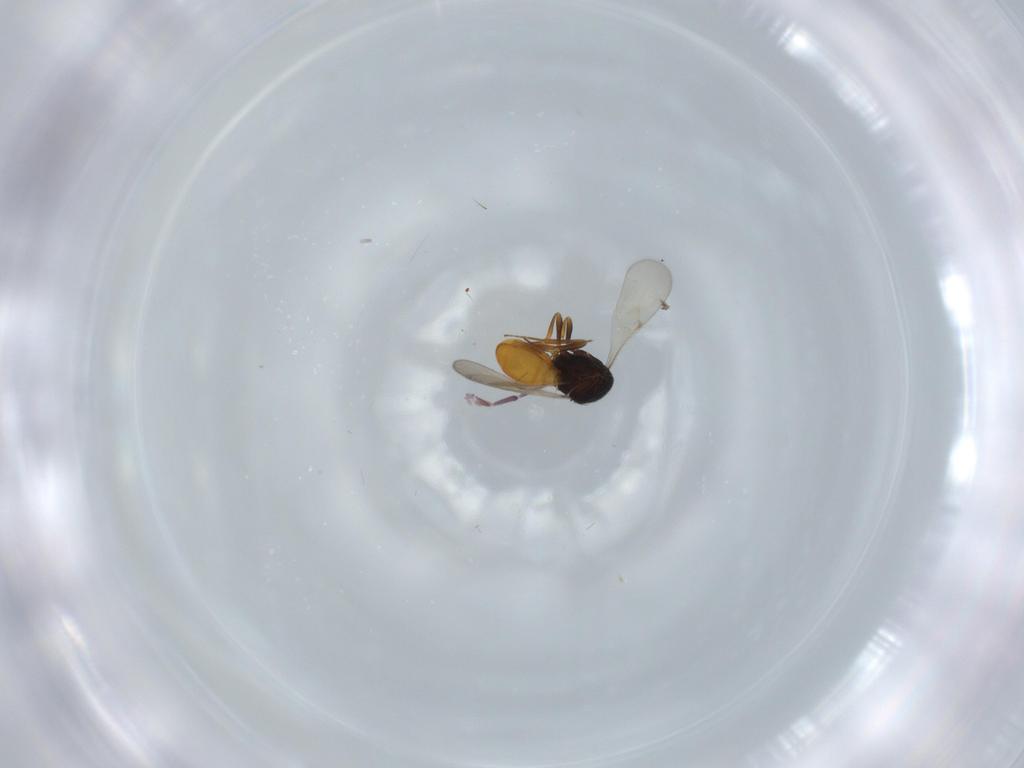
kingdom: Animalia
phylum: Arthropoda
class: Insecta
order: Hymenoptera
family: Scelionidae
